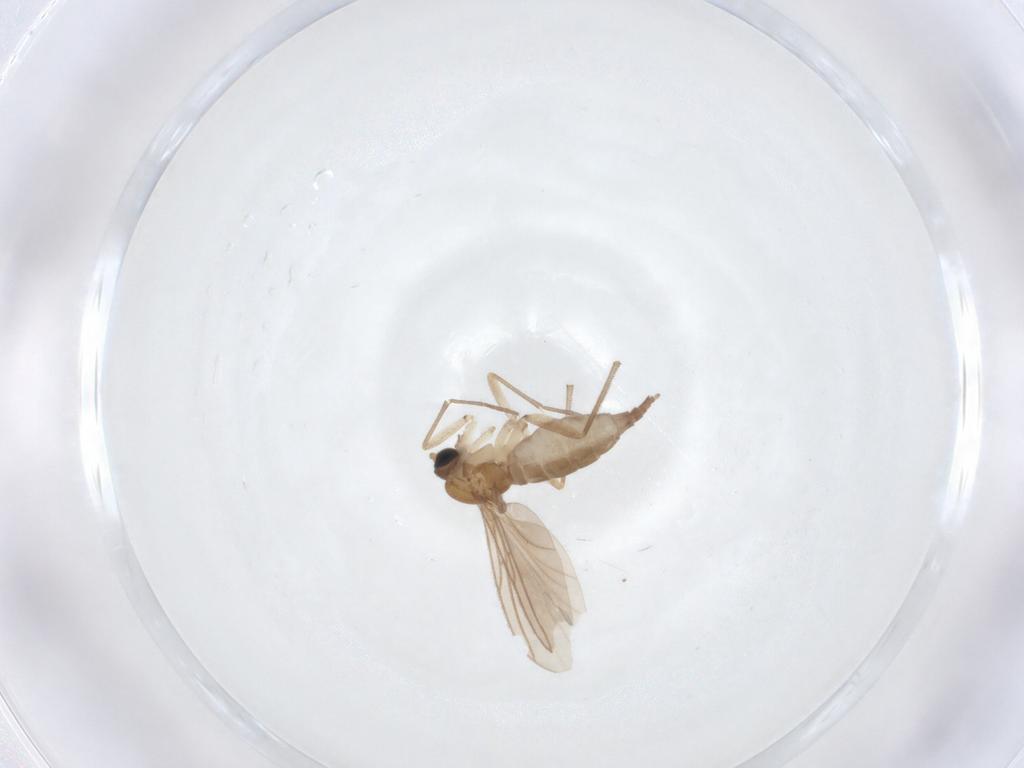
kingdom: Animalia
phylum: Arthropoda
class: Insecta
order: Diptera
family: Sciaridae
